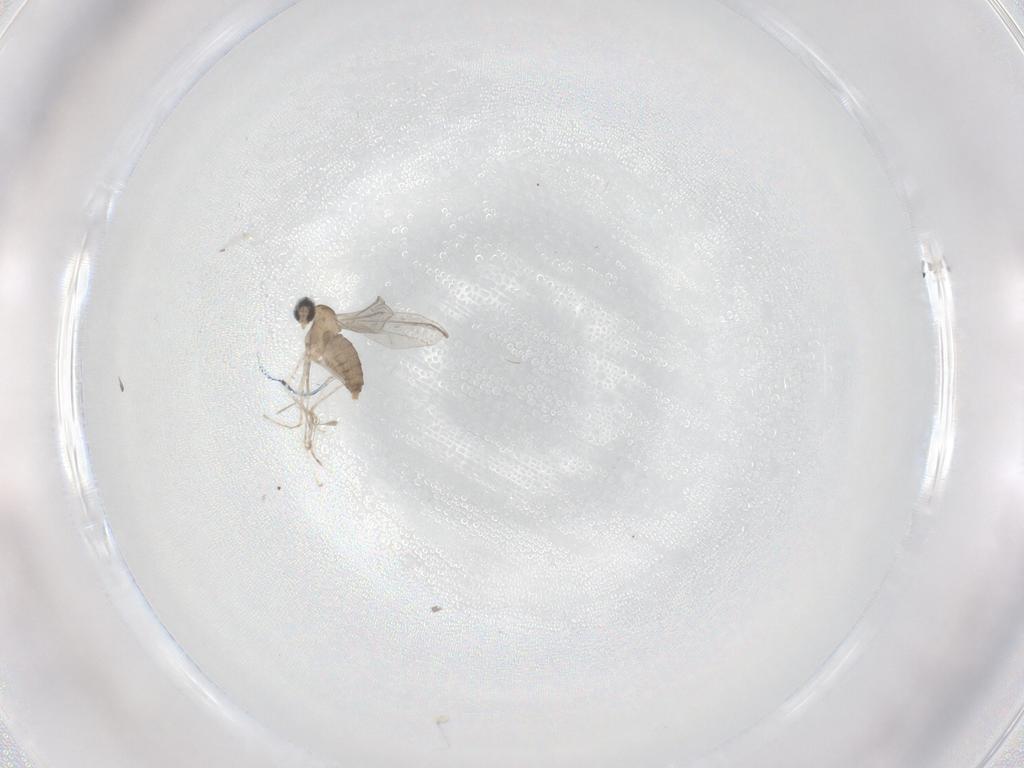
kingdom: Animalia
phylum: Arthropoda
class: Insecta
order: Diptera
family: Cecidomyiidae
